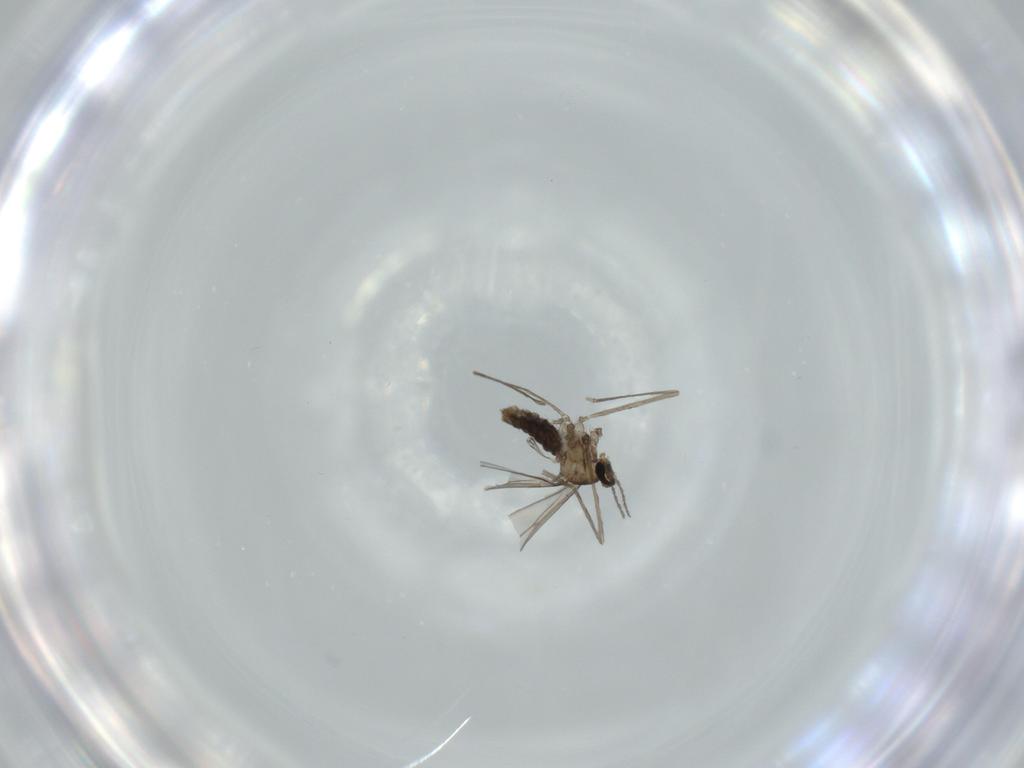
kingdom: Animalia
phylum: Arthropoda
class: Insecta
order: Diptera
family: Cecidomyiidae
